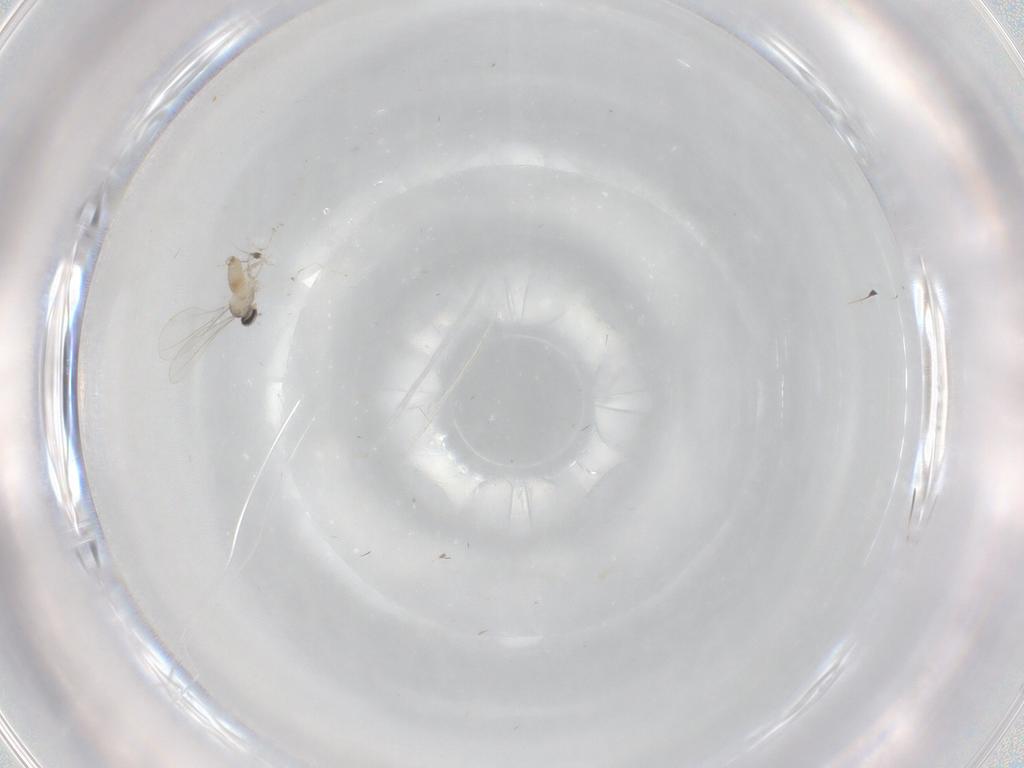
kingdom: Animalia
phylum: Arthropoda
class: Insecta
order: Diptera
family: Cecidomyiidae
